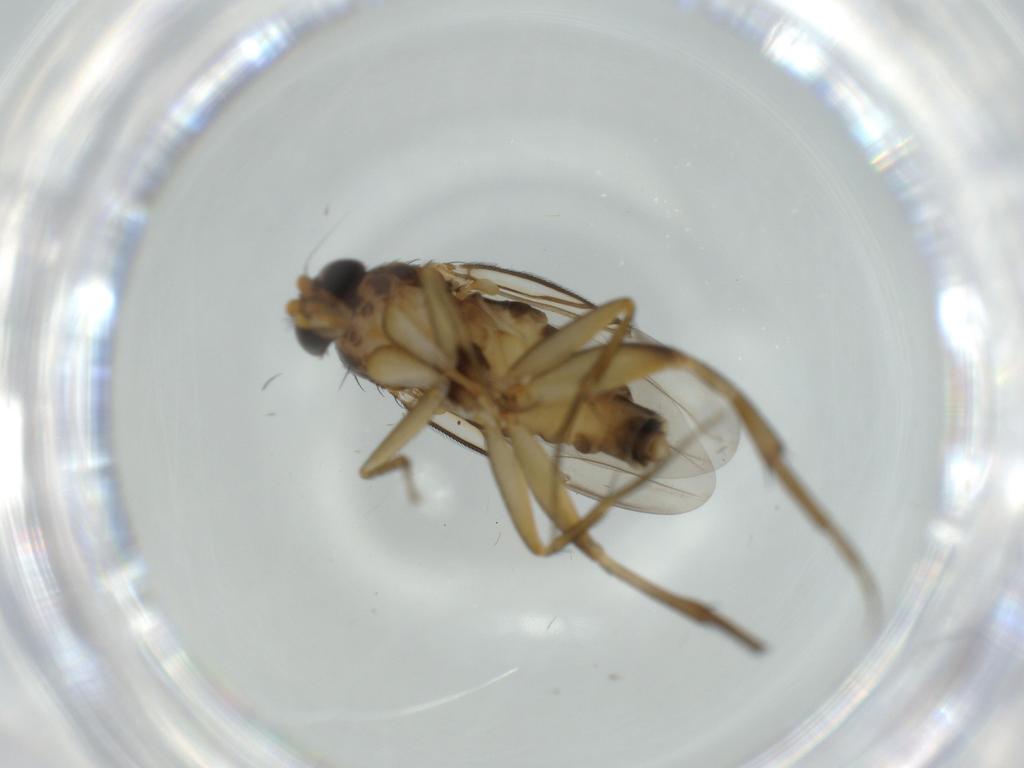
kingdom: Animalia
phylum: Arthropoda
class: Insecta
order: Diptera
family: Phoridae
